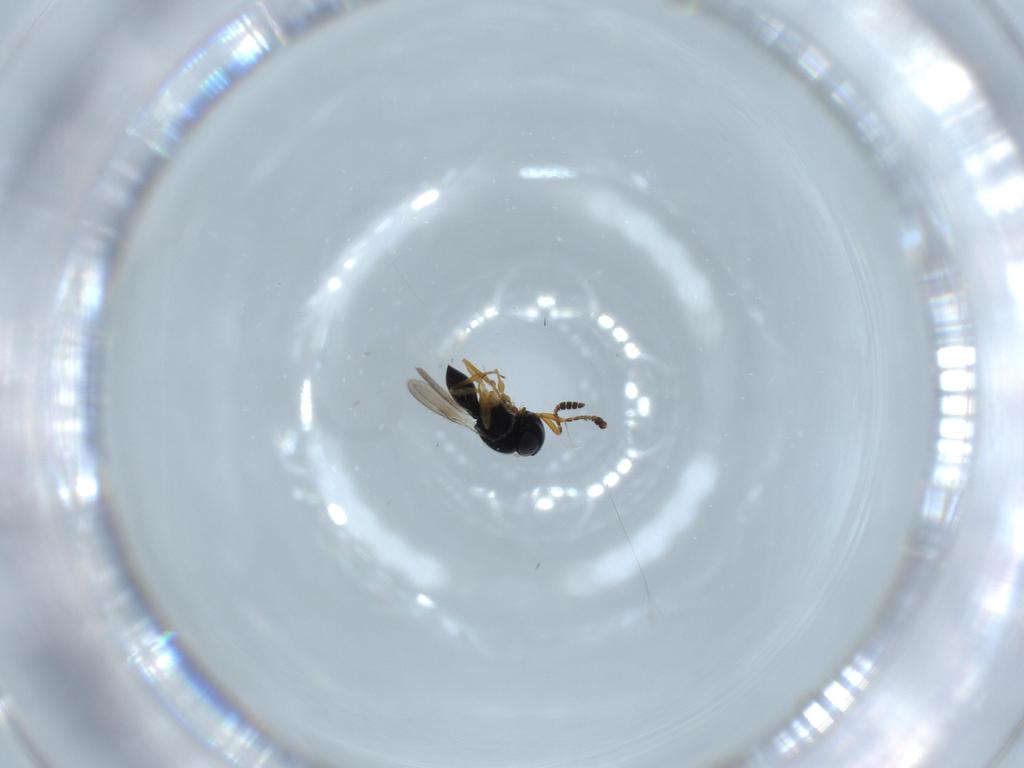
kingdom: Animalia
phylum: Arthropoda
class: Insecta
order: Hymenoptera
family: Scelionidae
